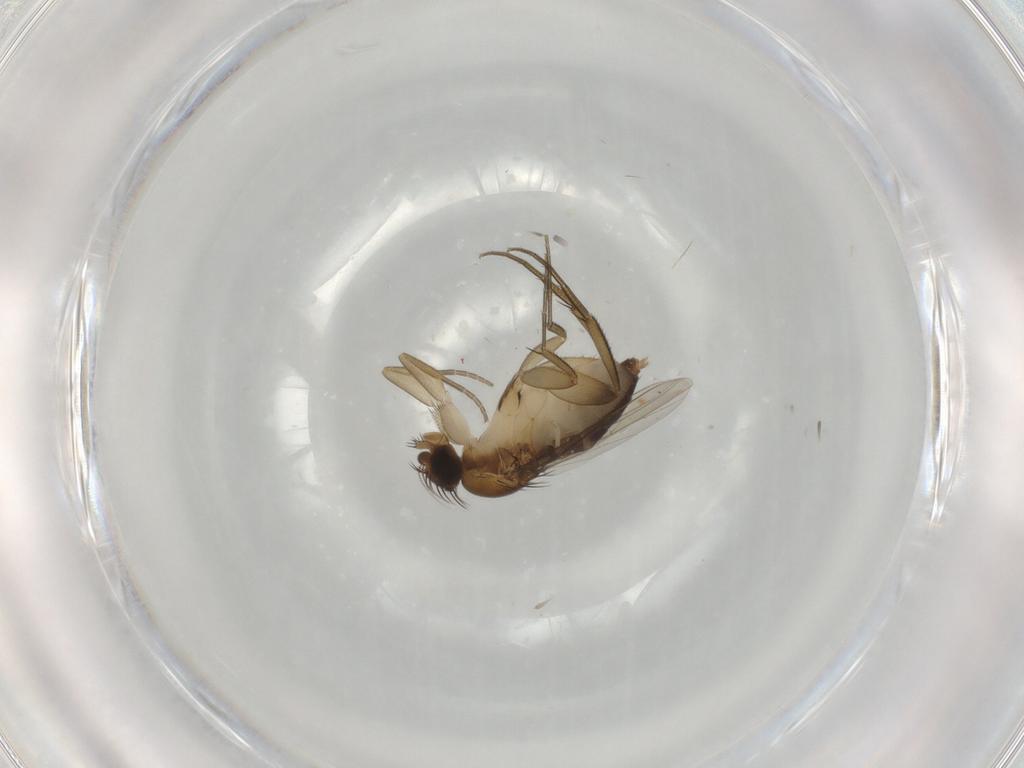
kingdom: Animalia
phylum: Arthropoda
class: Insecta
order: Diptera
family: Phoridae
